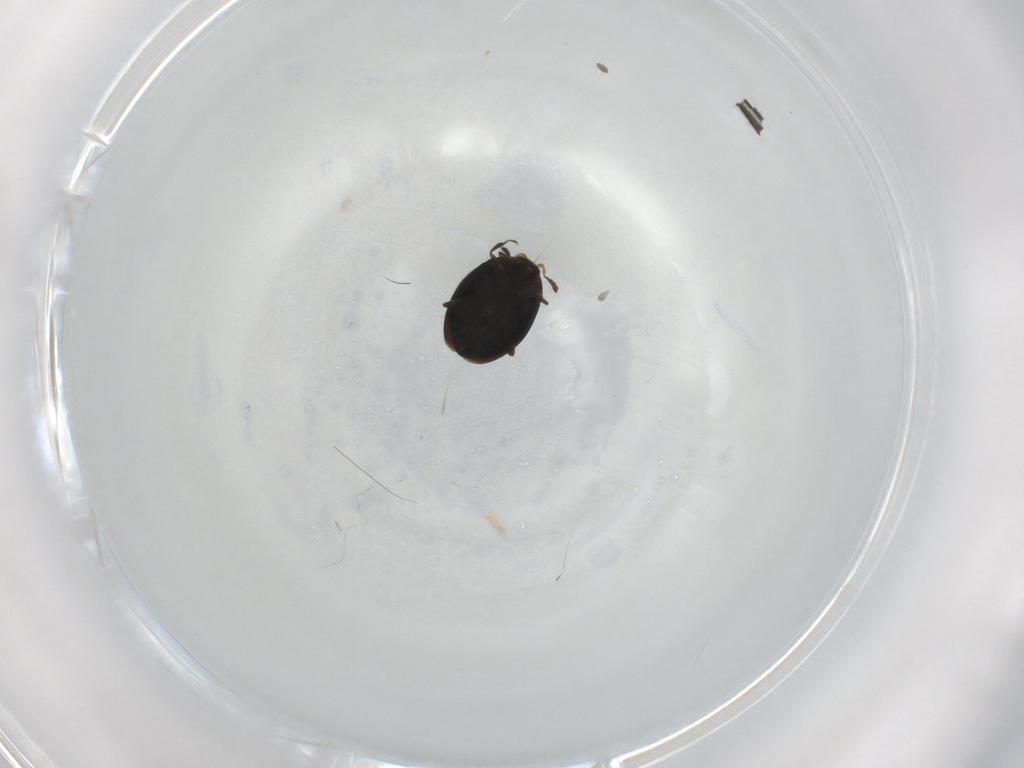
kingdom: Animalia
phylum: Arthropoda
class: Insecta
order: Coleoptera
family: Corylophidae
